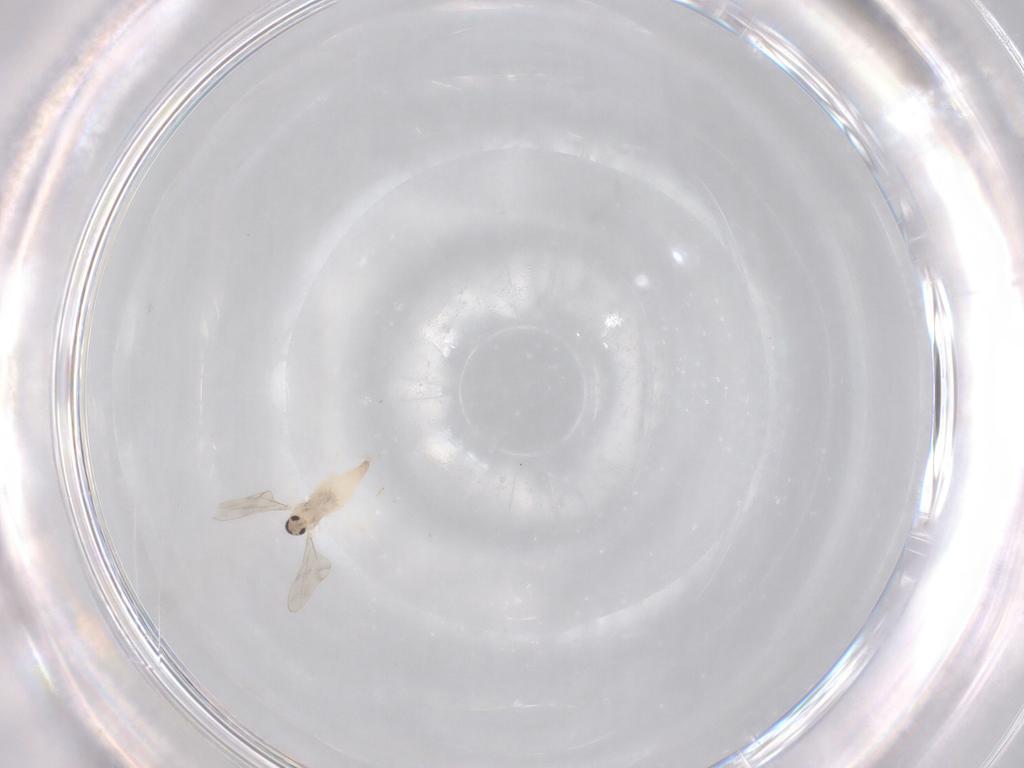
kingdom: Animalia
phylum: Arthropoda
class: Insecta
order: Diptera
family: Cecidomyiidae
